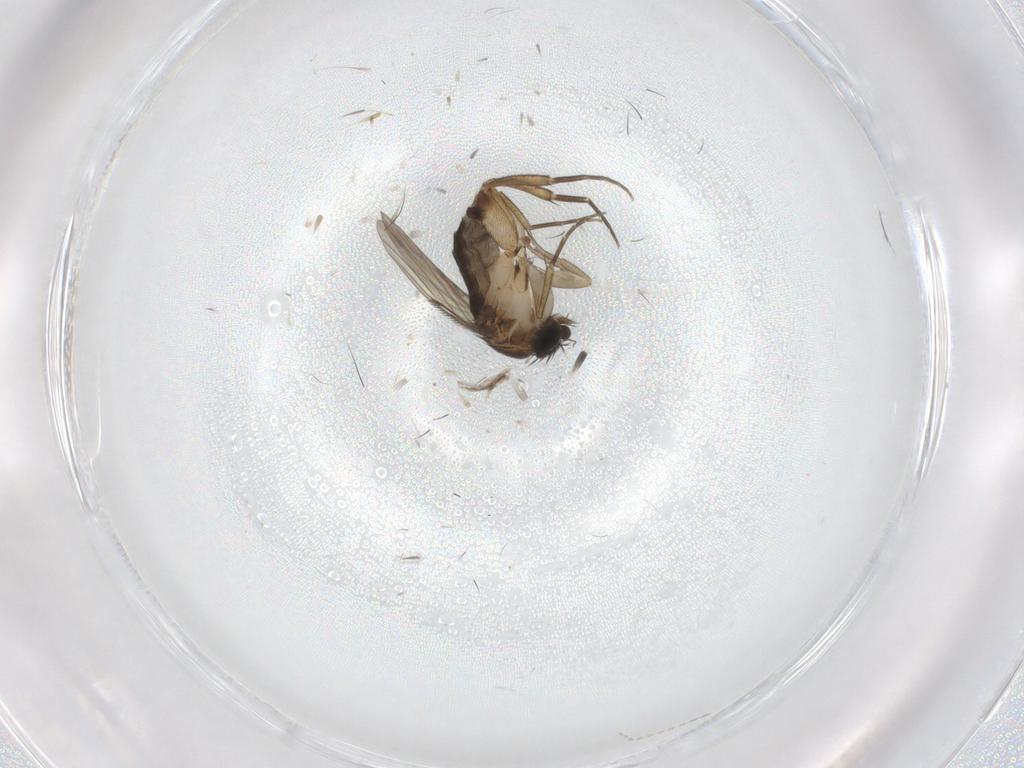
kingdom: Animalia
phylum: Arthropoda
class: Insecta
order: Diptera
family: Phoridae
